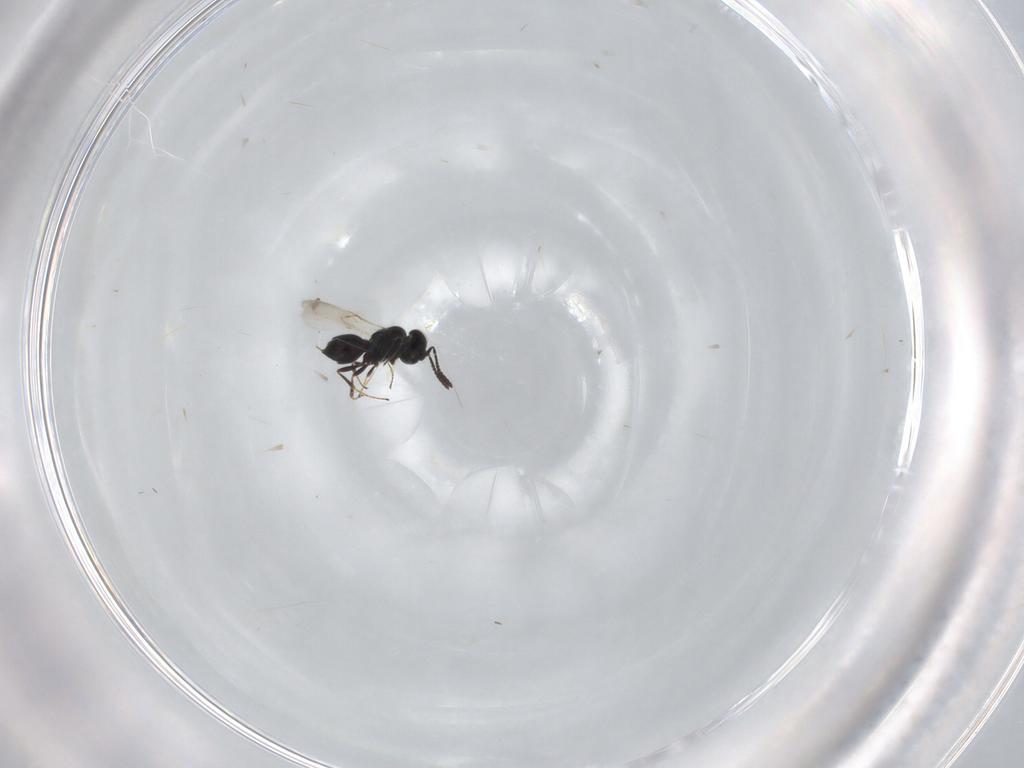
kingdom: Animalia
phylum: Arthropoda
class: Insecta
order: Hymenoptera
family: Scelionidae
